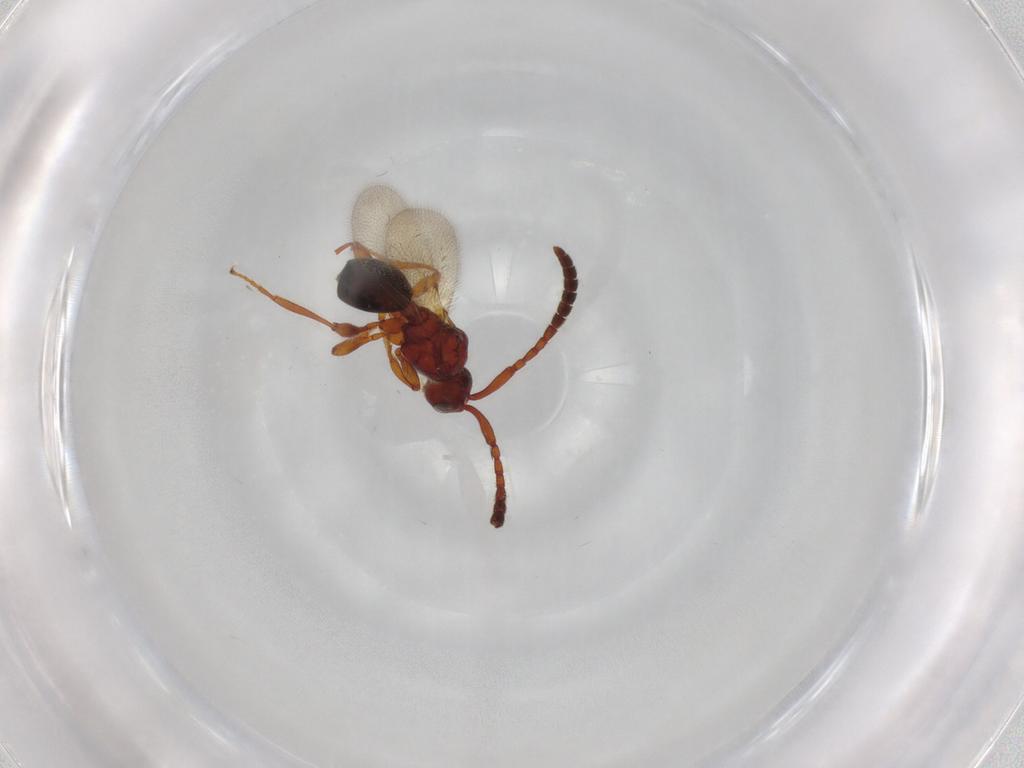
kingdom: Animalia
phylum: Arthropoda
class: Insecta
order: Hymenoptera
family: Diapriidae
